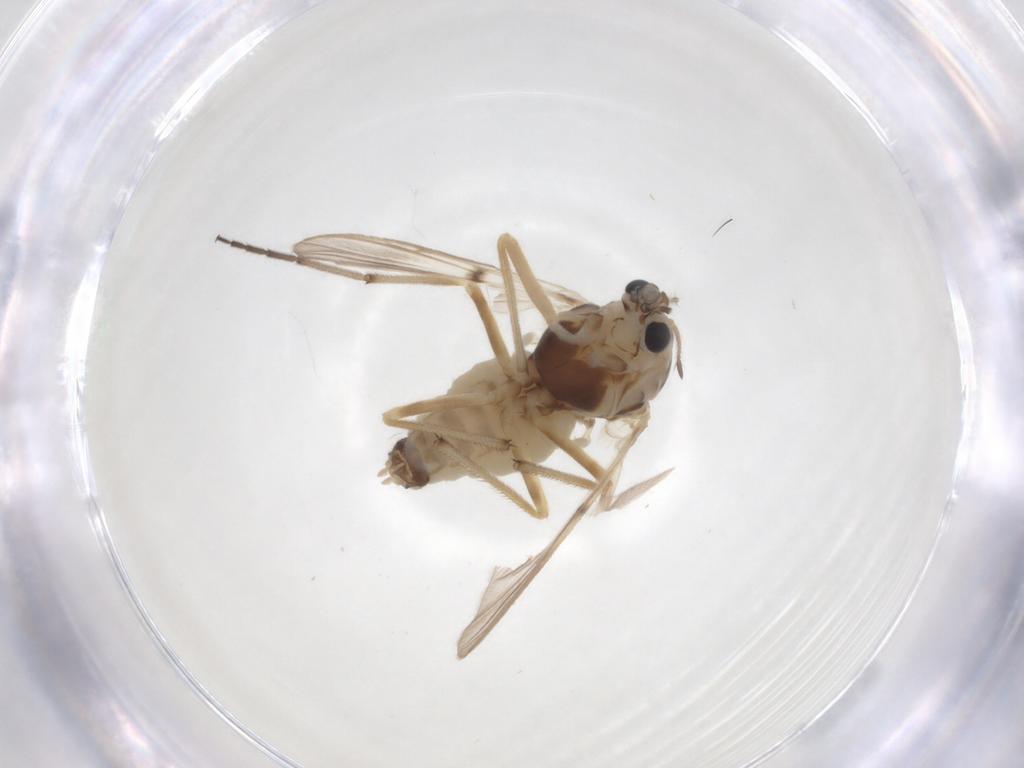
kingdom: Animalia
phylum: Arthropoda
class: Insecta
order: Diptera
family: Chironomidae
